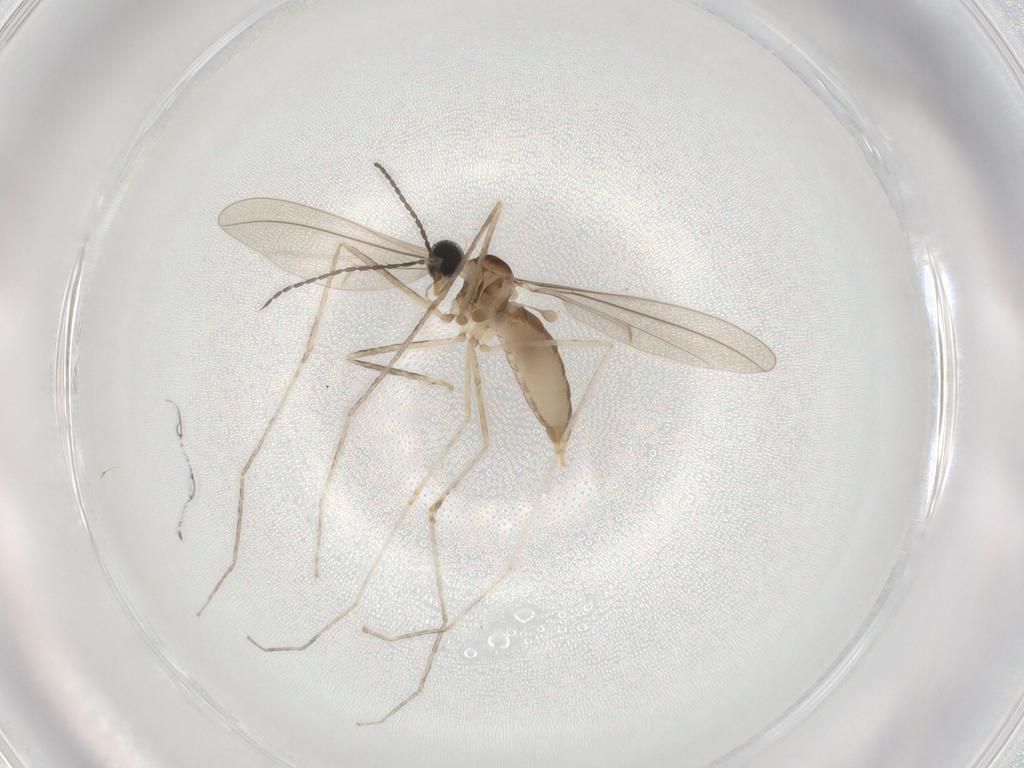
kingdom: Animalia
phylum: Arthropoda
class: Insecta
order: Diptera
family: Cecidomyiidae
